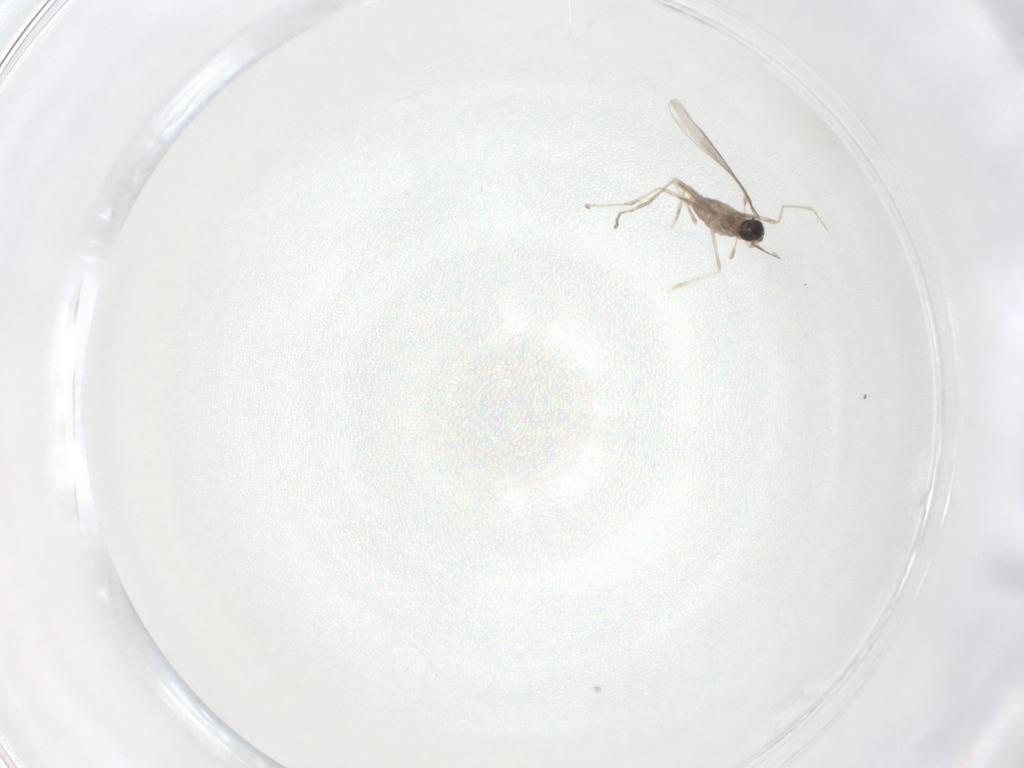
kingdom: Animalia
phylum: Arthropoda
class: Insecta
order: Diptera
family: Cecidomyiidae
